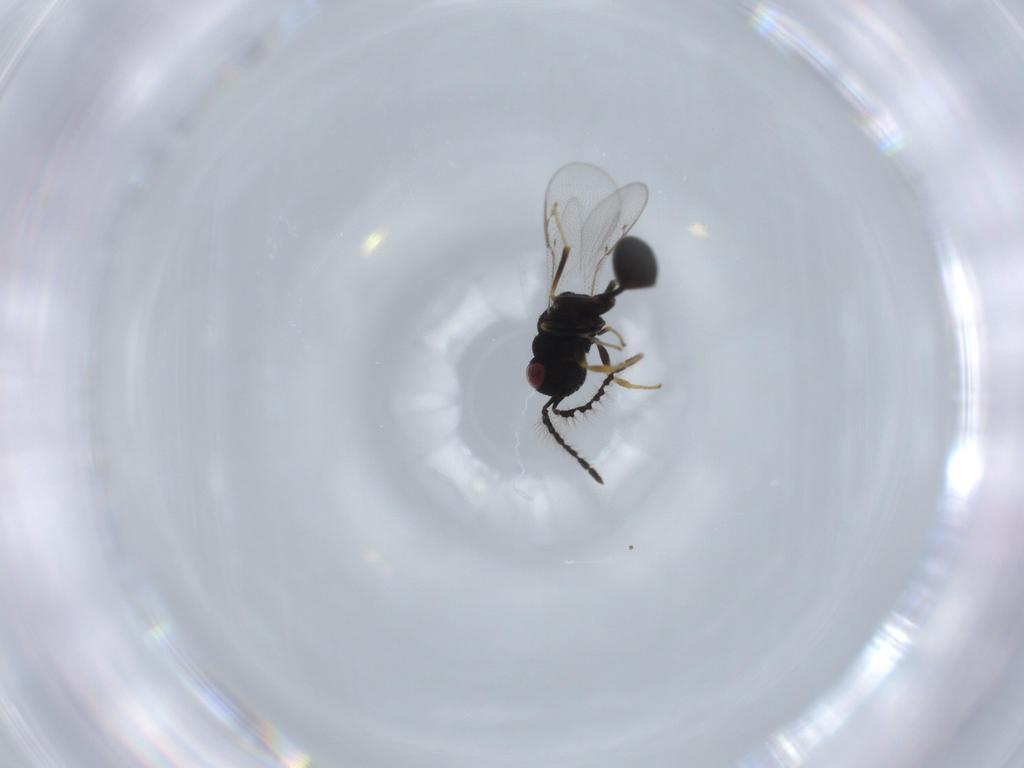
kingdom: Animalia
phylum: Arthropoda
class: Insecta
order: Hymenoptera
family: Eurytomidae
